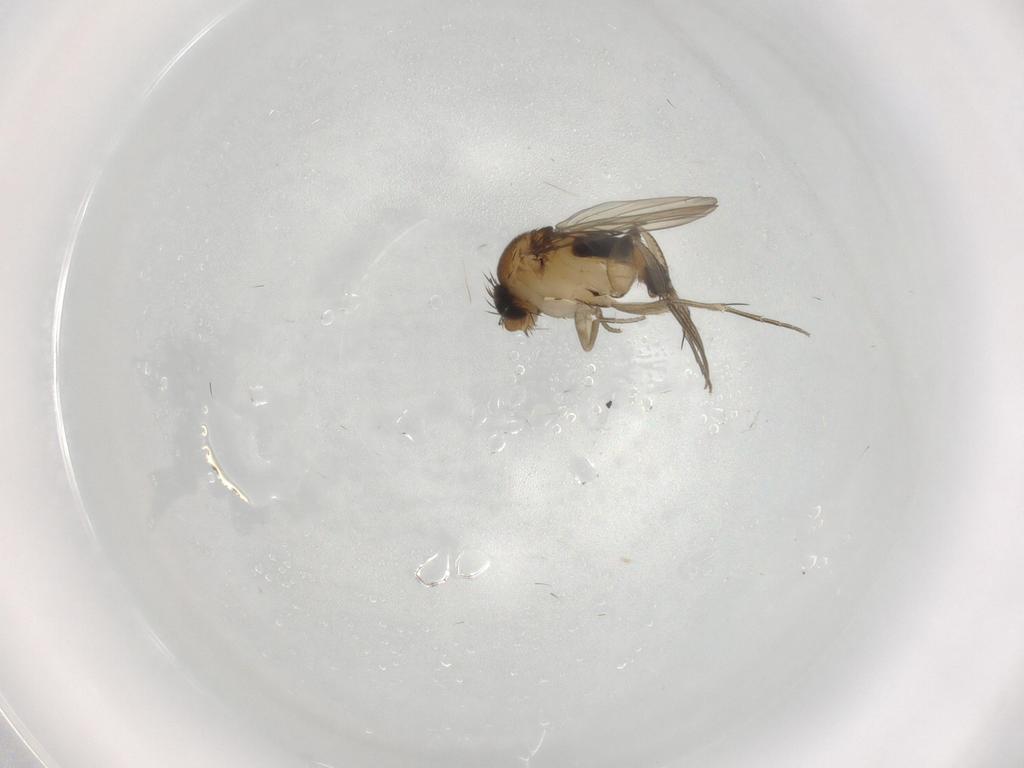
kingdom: Animalia
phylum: Arthropoda
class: Insecta
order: Diptera
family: Phoridae
